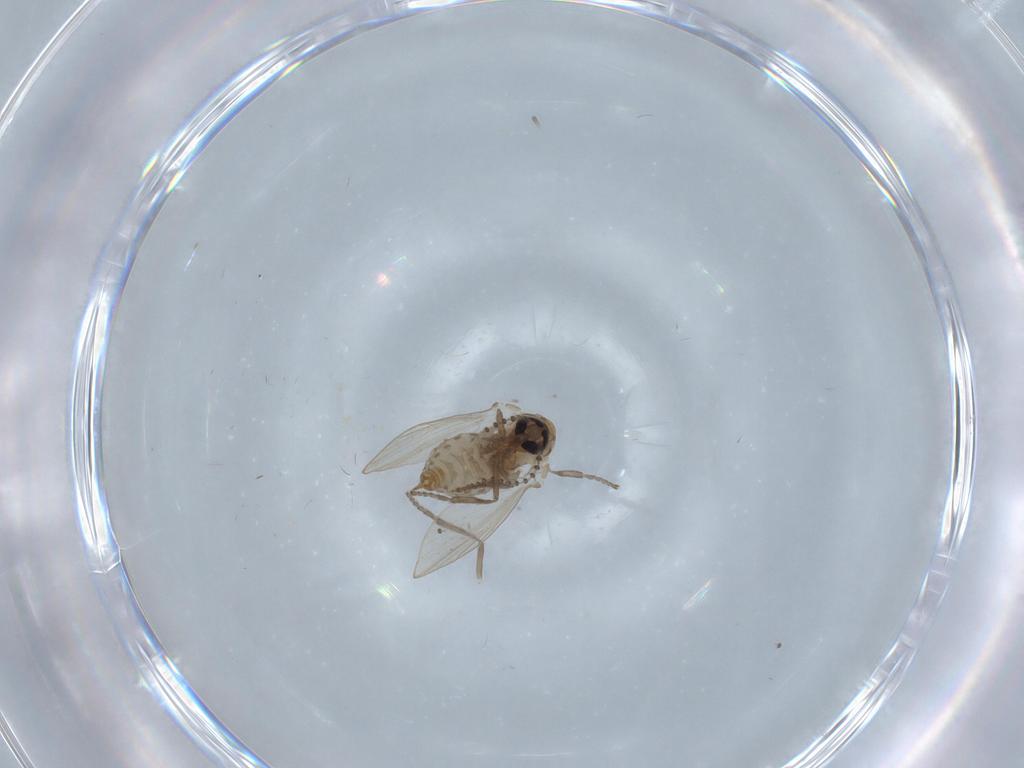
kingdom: Animalia
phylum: Arthropoda
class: Insecta
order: Diptera
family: Psychodidae
